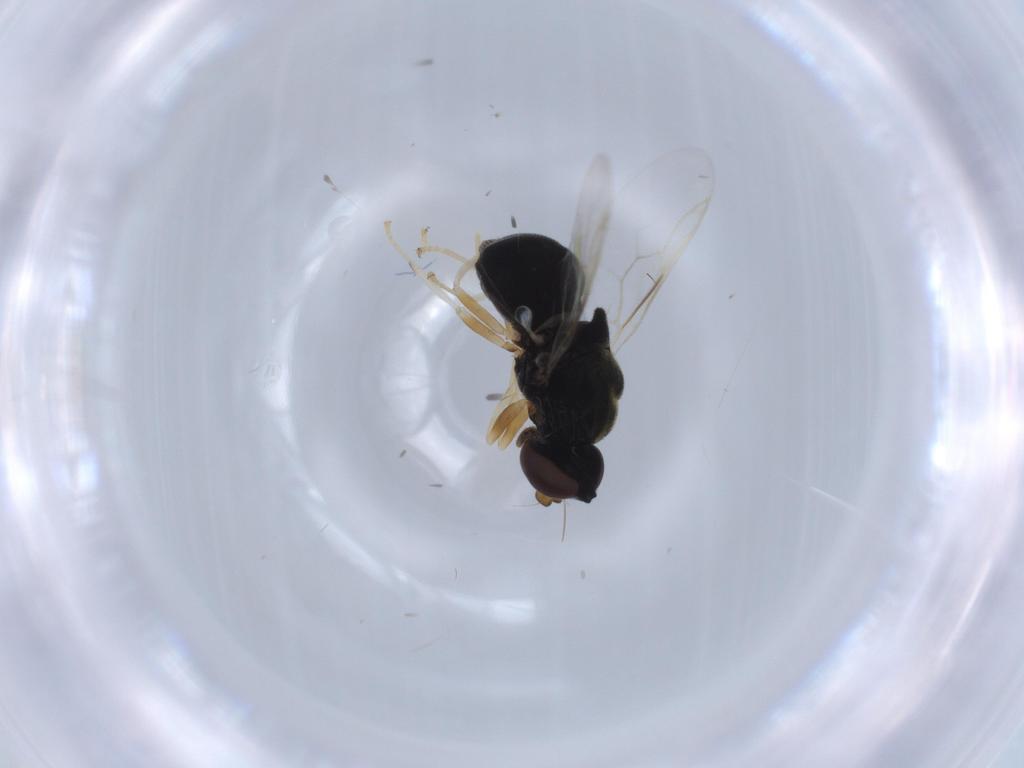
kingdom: Animalia
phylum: Arthropoda
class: Insecta
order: Diptera
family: Stratiomyidae
